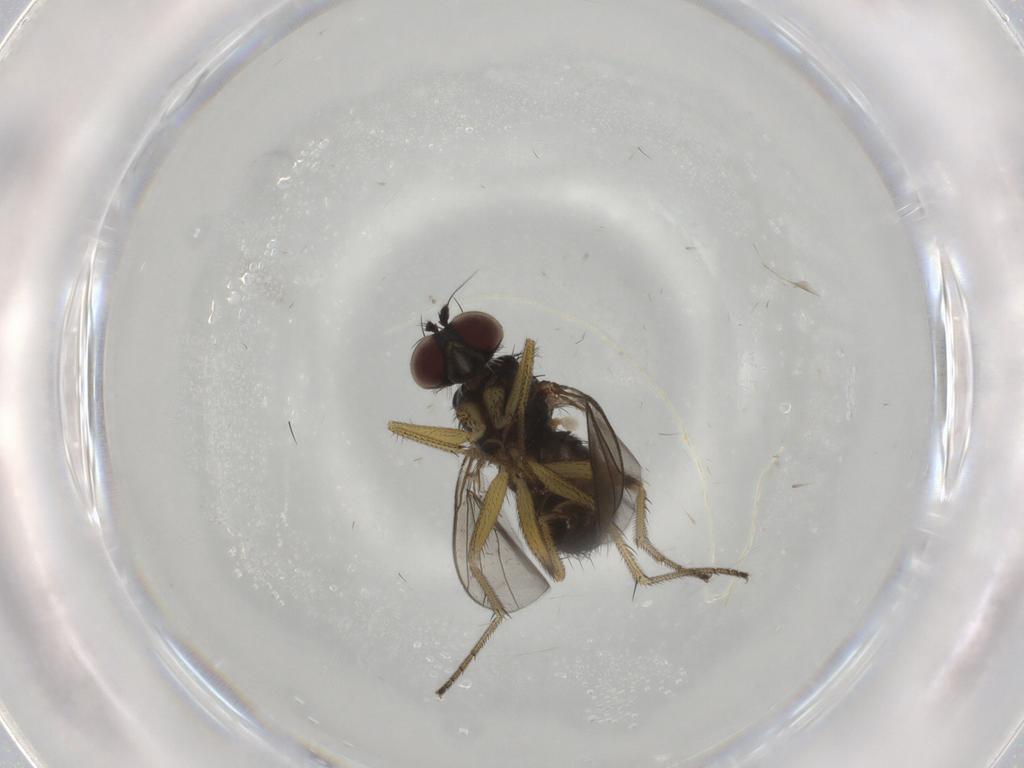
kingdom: Animalia
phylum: Arthropoda
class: Insecta
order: Diptera
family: Dolichopodidae
